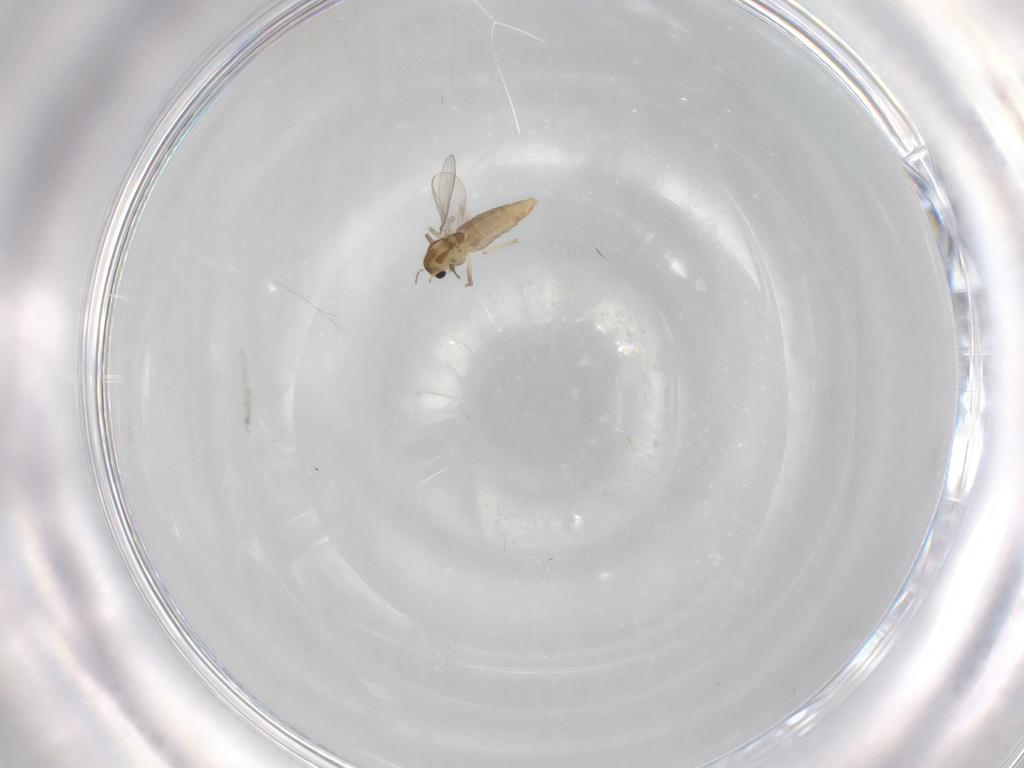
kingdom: Animalia
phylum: Arthropoda
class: Insecta
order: Diptera
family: Chironomidae
